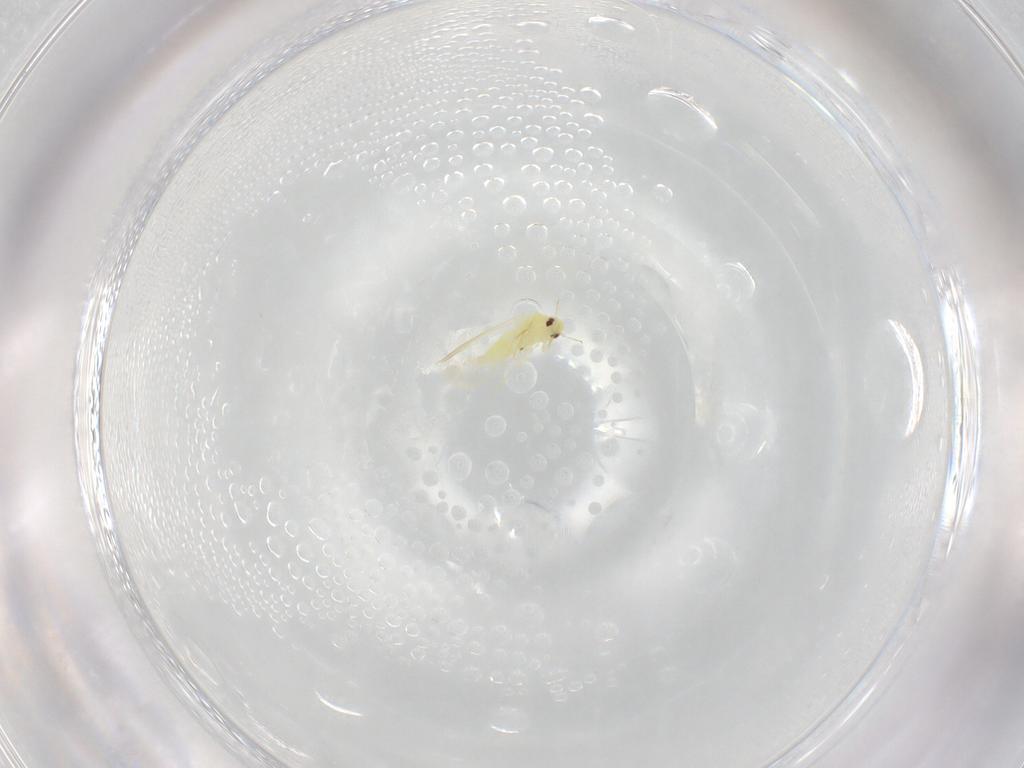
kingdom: Animalia
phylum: Arthropoda
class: Insecta
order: Hemiptera
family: Aleyrodidae
